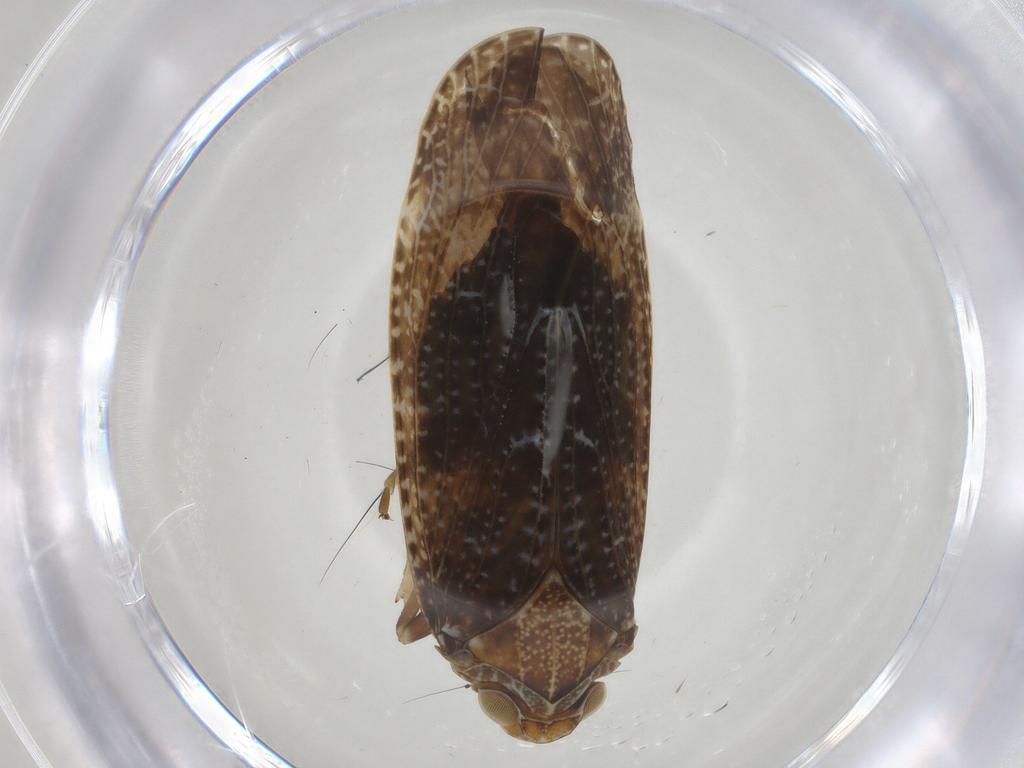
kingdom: Animalia
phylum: Arthropoda
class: Insecta
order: Hemiptera
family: Achilidae
